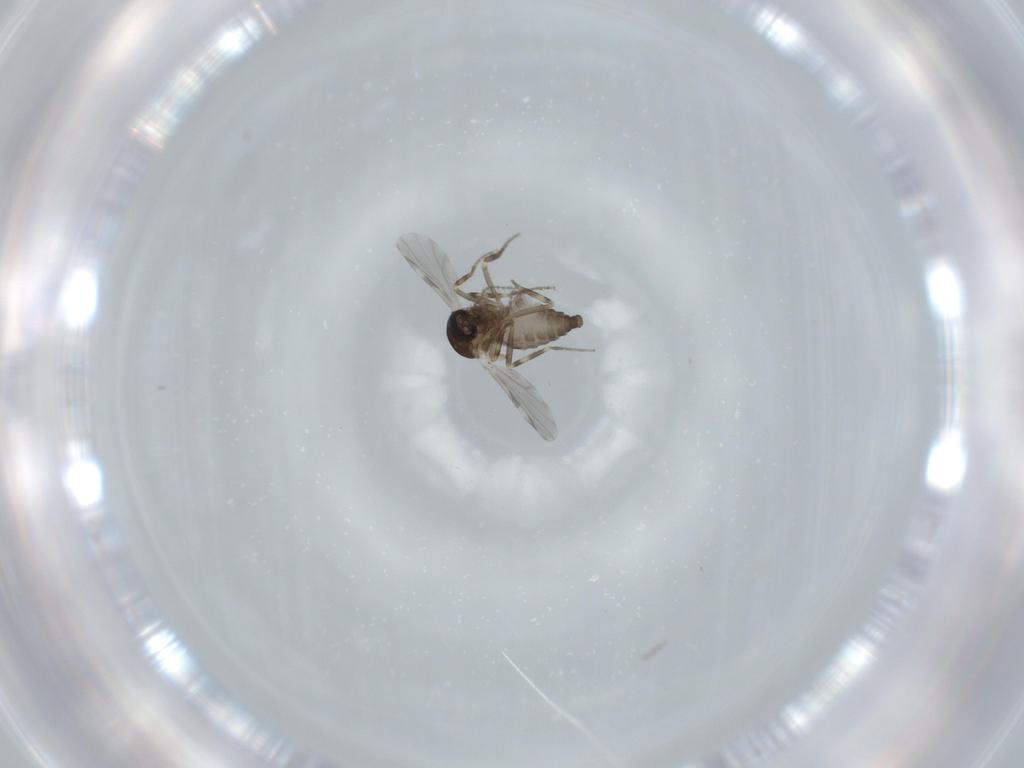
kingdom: Animalia
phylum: Arthropoda
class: Insecta
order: Diptera
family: Ceratopogonidae
